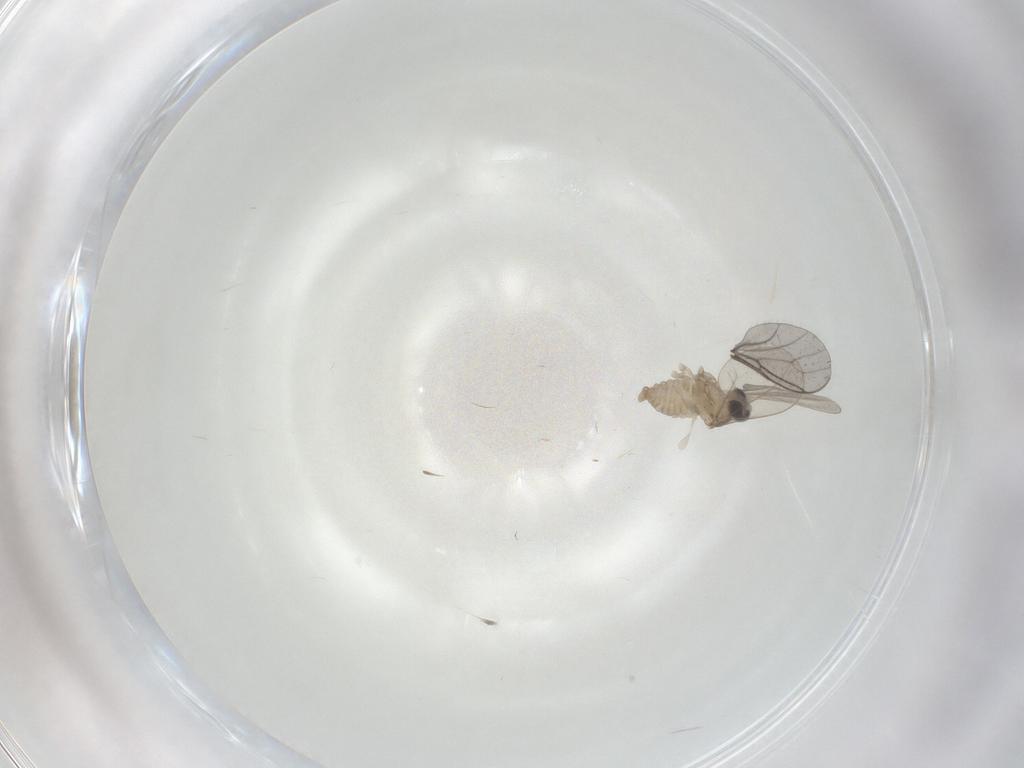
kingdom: Animalia
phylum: Arthropoda
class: Insecta
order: Diptera
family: Cecidomyiidae
